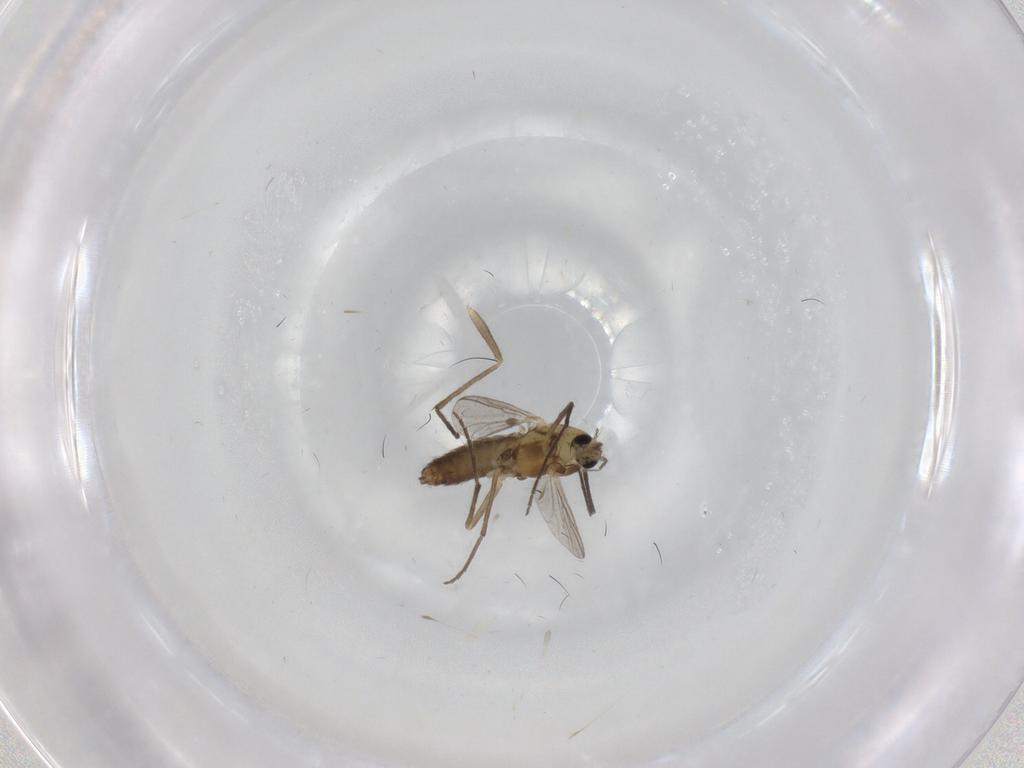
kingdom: Animalia
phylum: Arthropoda
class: Insecta
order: Diptera
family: Chironomidae
